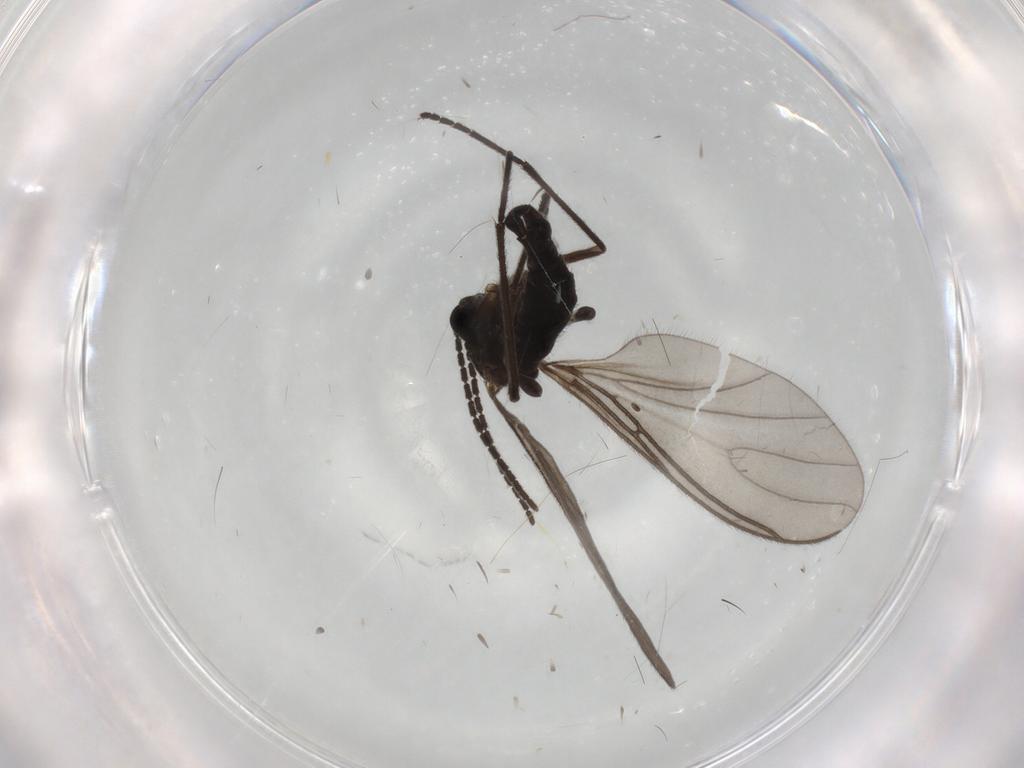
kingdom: Animalia
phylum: Arthropoda
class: Insecta
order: Diptera
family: Sciaridae
